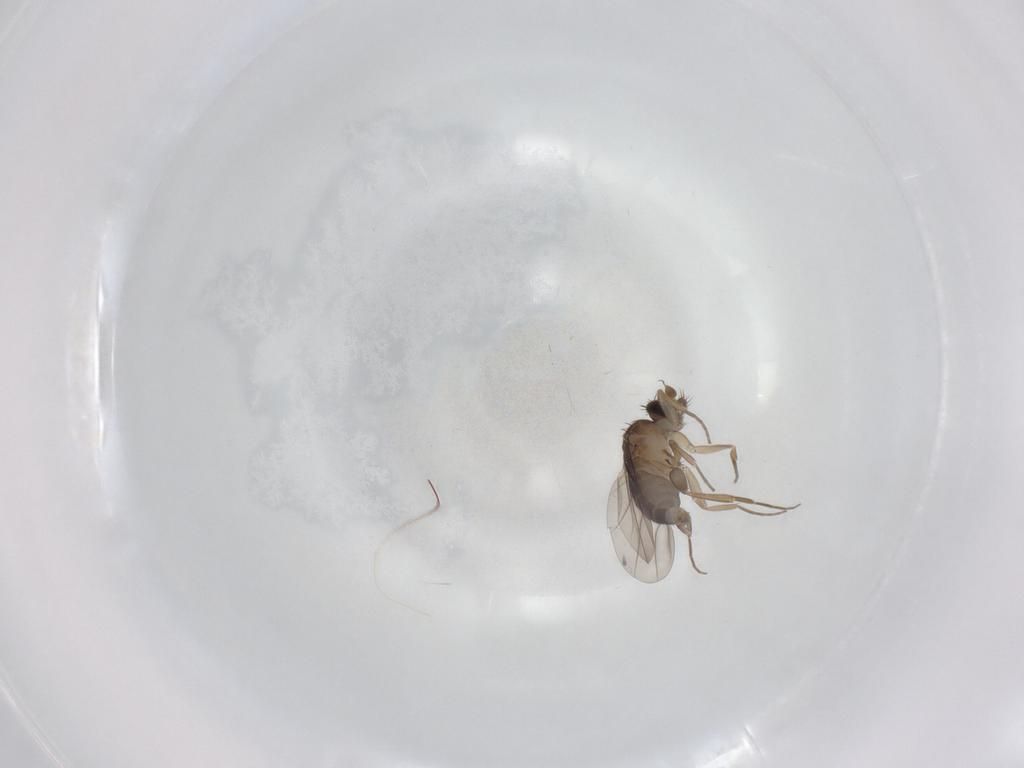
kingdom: Animalia
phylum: Arthropoda
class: Insecta
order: Diptera
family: Phoridae
